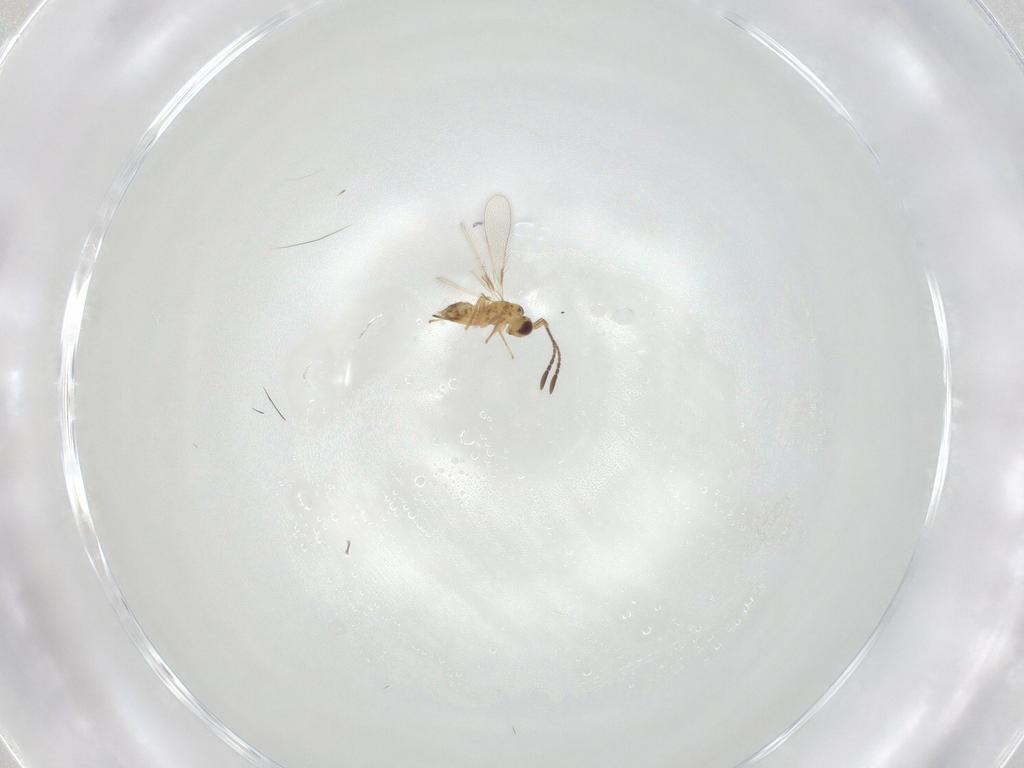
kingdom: Animalia
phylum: Arthropoda
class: Insecta
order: Hymenoptera
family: Mymaridae
